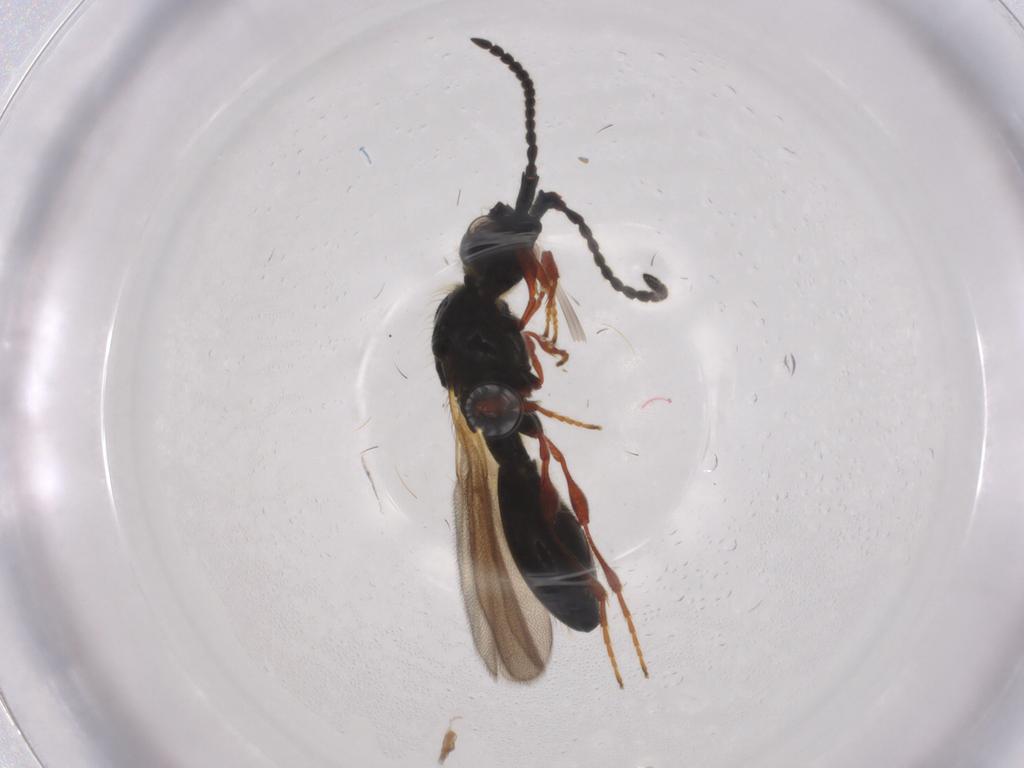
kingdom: Animalia
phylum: Arthropoda
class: Insecta
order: Hymenoptera
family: Diapriidae
